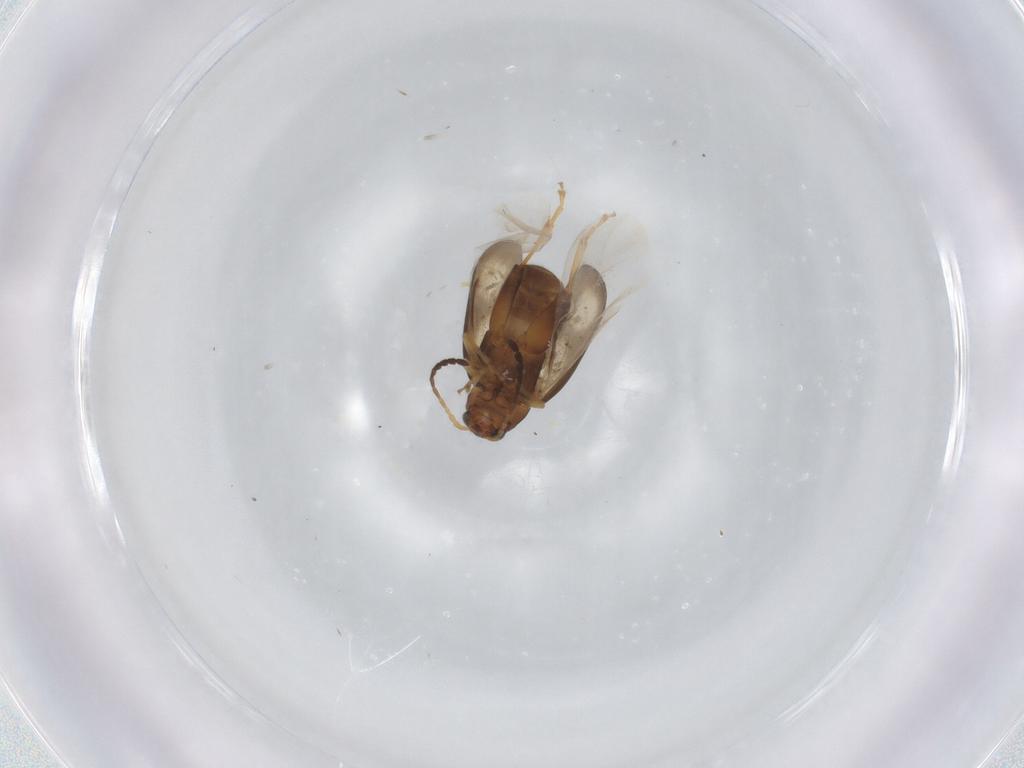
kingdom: Animalia
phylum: Arthropoda
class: Insecta
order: Coleoptera
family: Chrysomelidae
